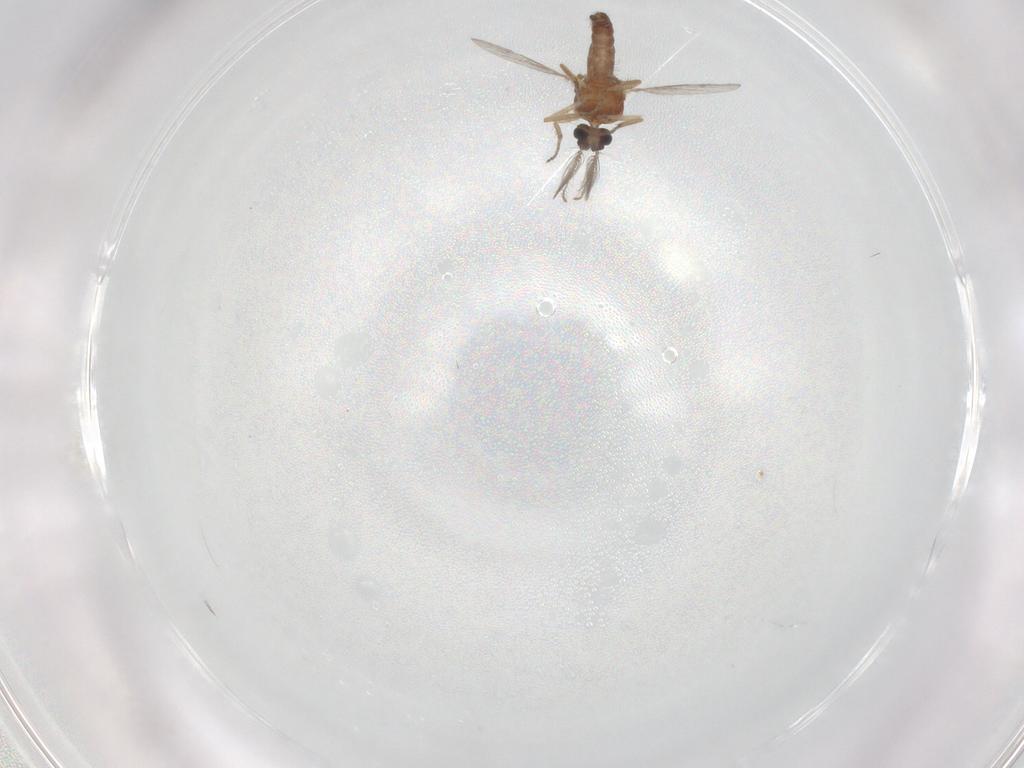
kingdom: Animalia
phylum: Arthropoda
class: Insecta
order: Diptera
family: Ceratopogonidae
